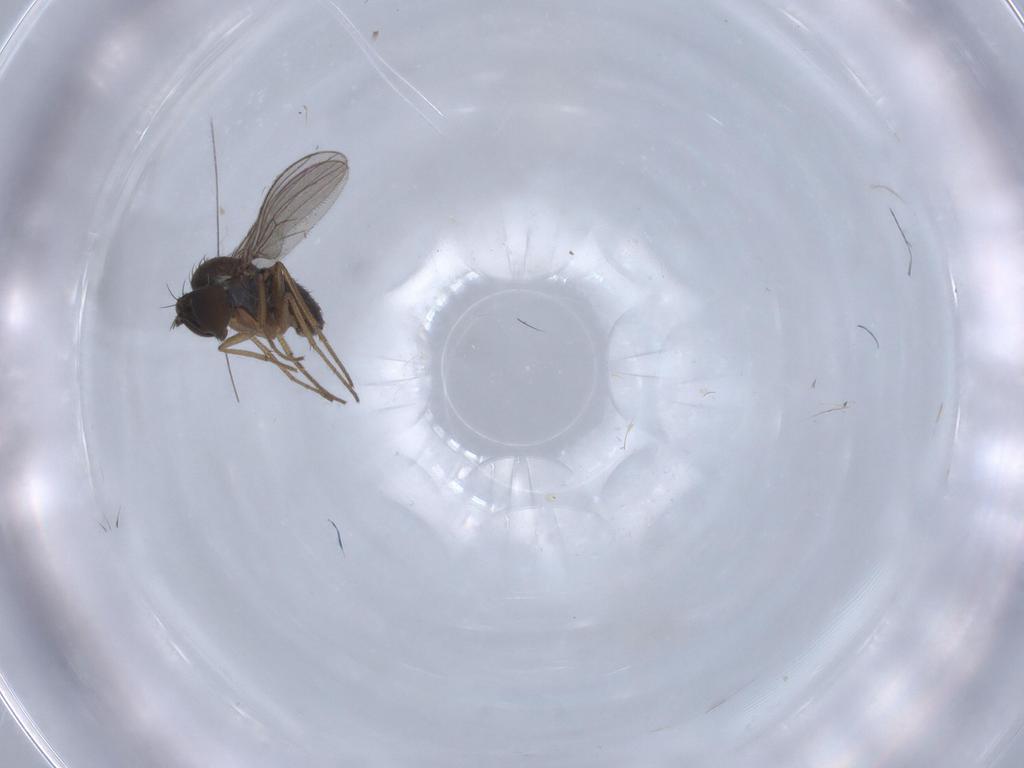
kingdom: Animalia
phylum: Arthropoda
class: Insecta
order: Diptera
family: Dolichopodidae
